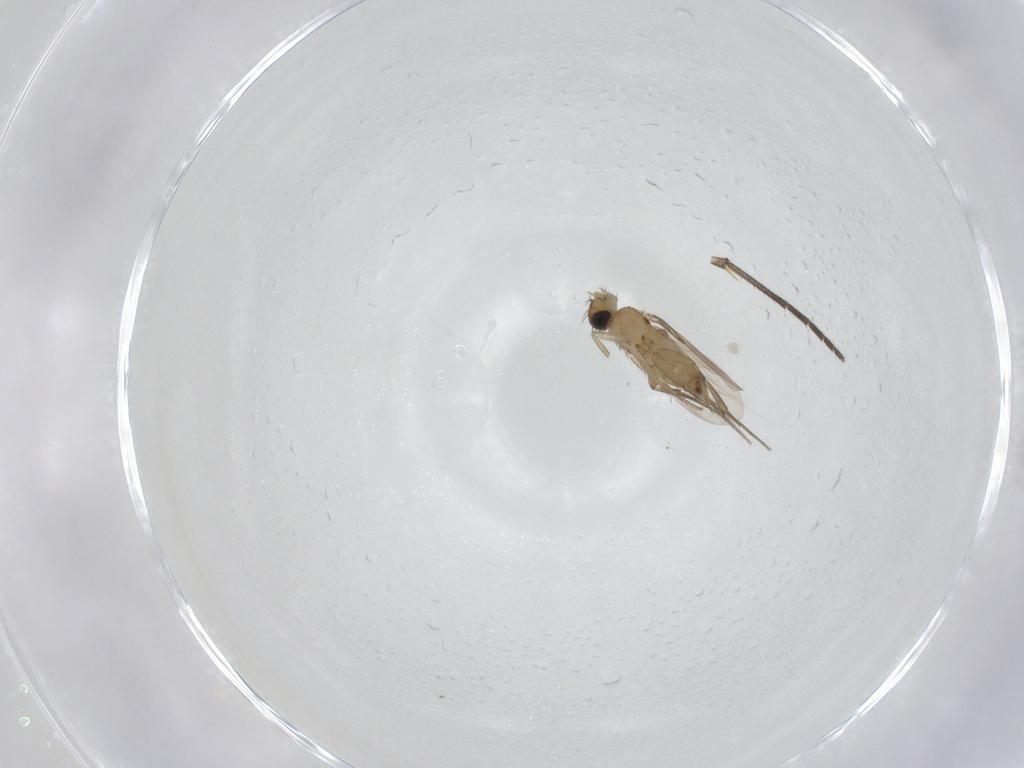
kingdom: Animalia
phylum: Arthropoda
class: Insecta
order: Diptera
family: Phoridae
